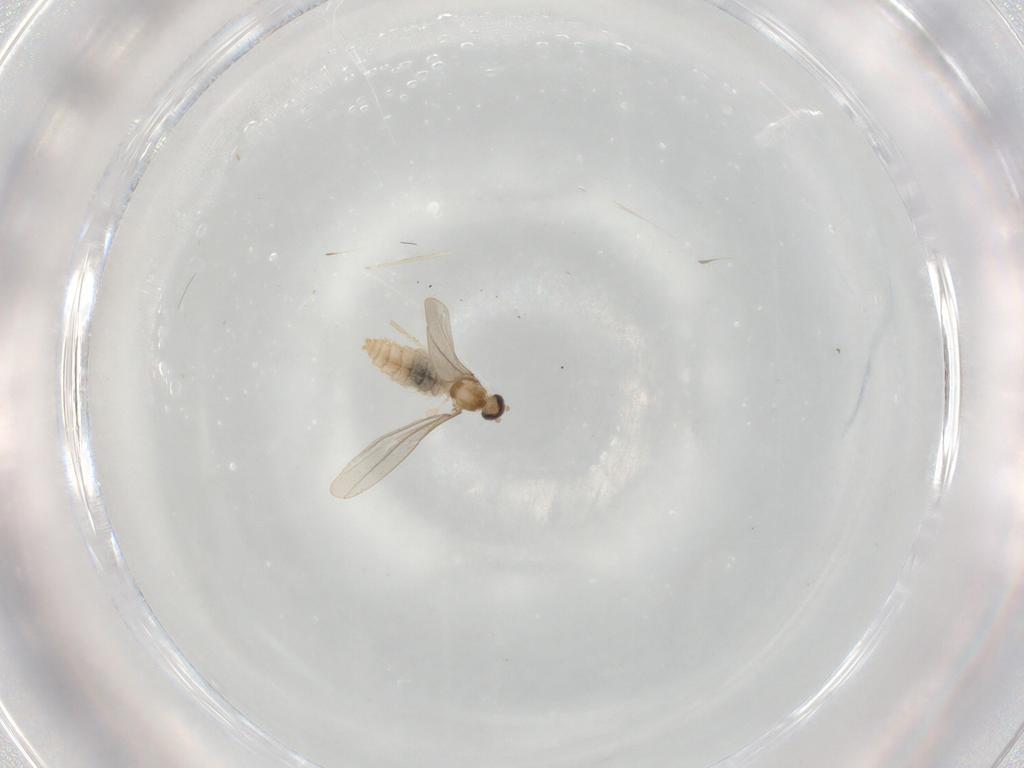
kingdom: Animalia
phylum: Arthropoda
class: Insecta
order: Diptera
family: Cecidomyiidae
